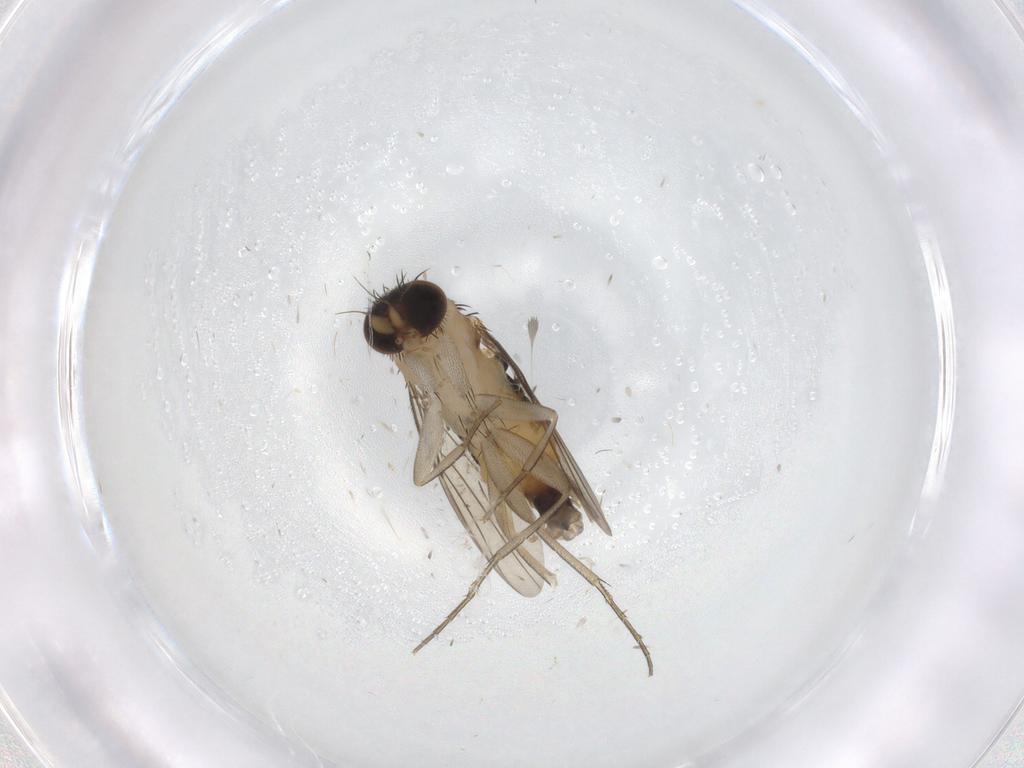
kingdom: Animalia
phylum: Arthropoda
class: Insecta
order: Diptera
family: Phoridae
